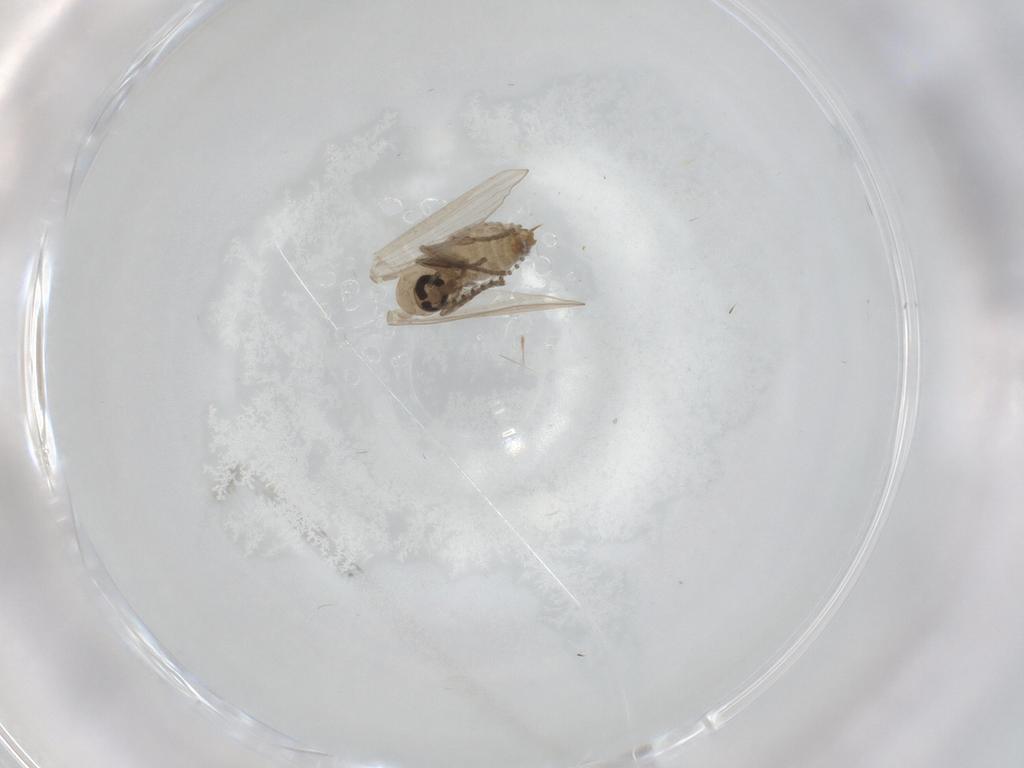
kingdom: Animalia
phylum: Arthropoda
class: Insecta
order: Diptera
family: Psychodidae
